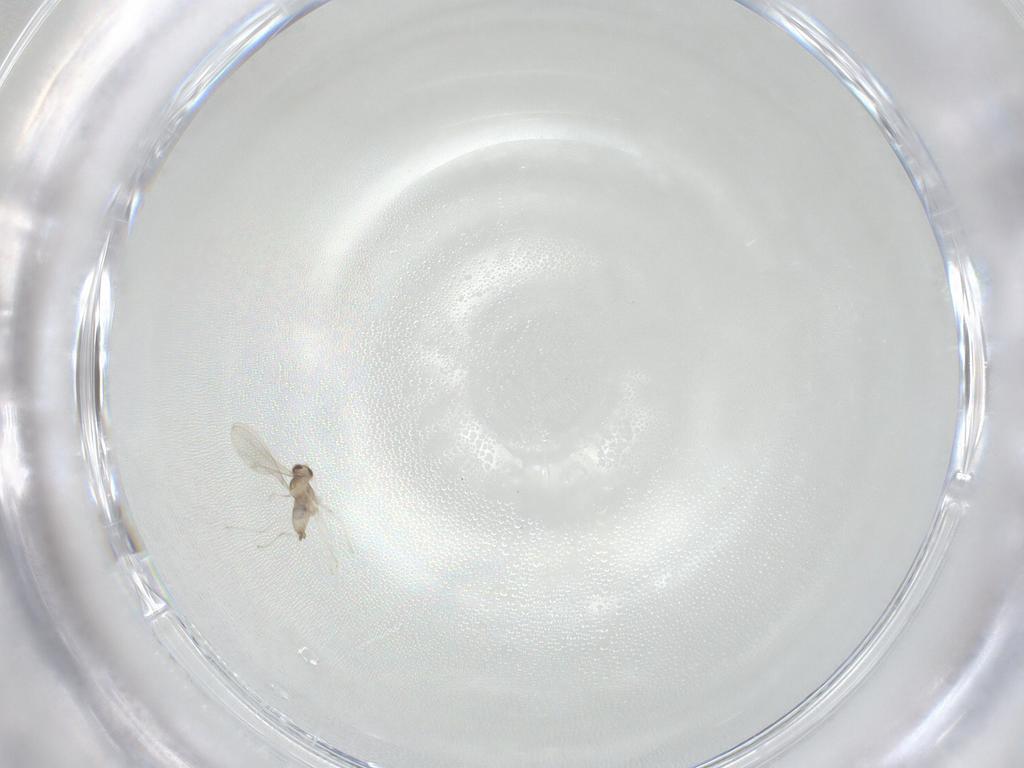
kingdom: Animalia
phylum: Arthropoda
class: Insecta
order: Diptera
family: Cecidomyiidae
